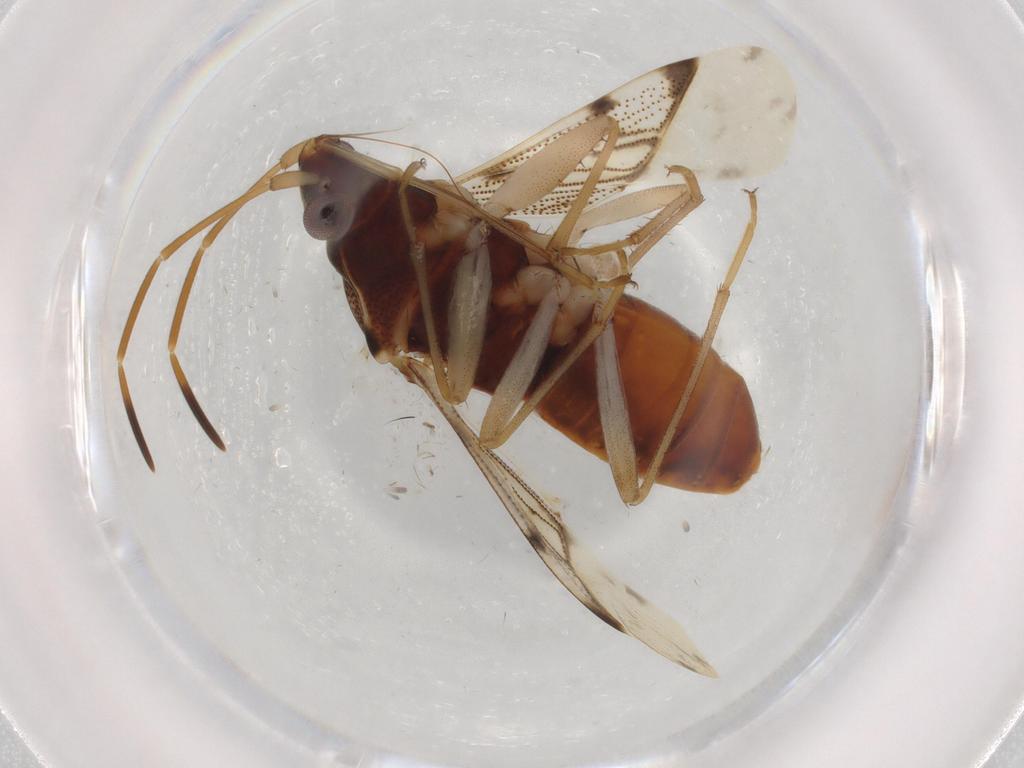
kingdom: Animalia
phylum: Arthropoda
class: Insecta
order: Hemiptera
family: Rhyparochromidae
